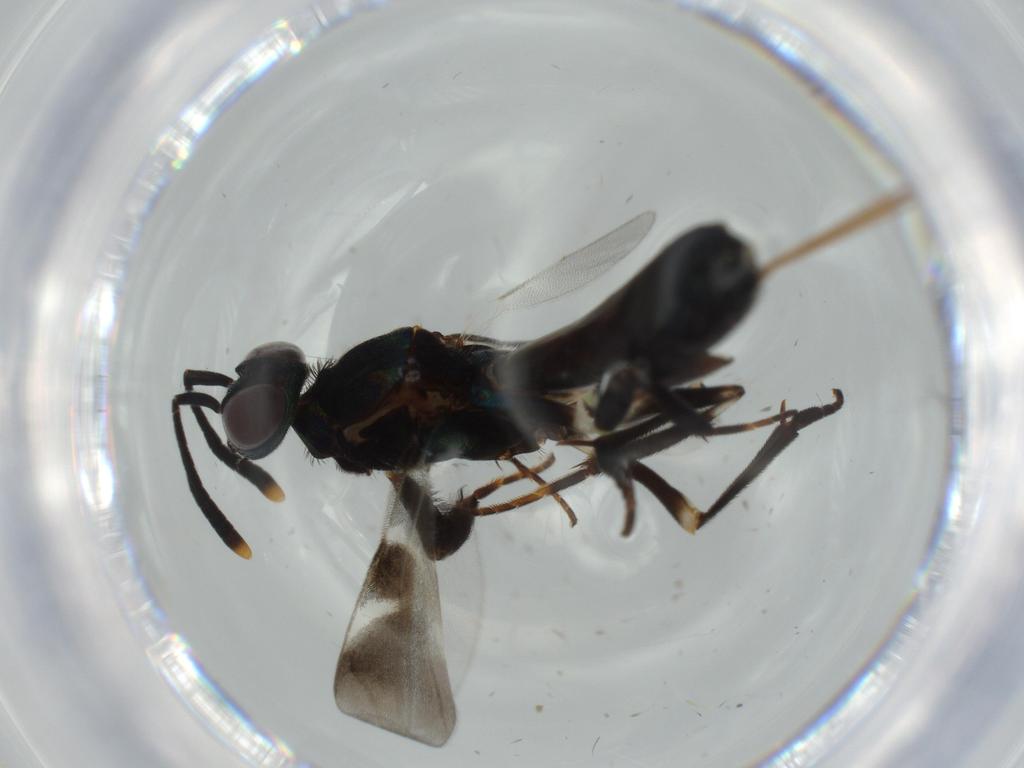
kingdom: Animalia
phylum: Arthropoda
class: Insecta
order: Hymenoptera
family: Eupelmidae
